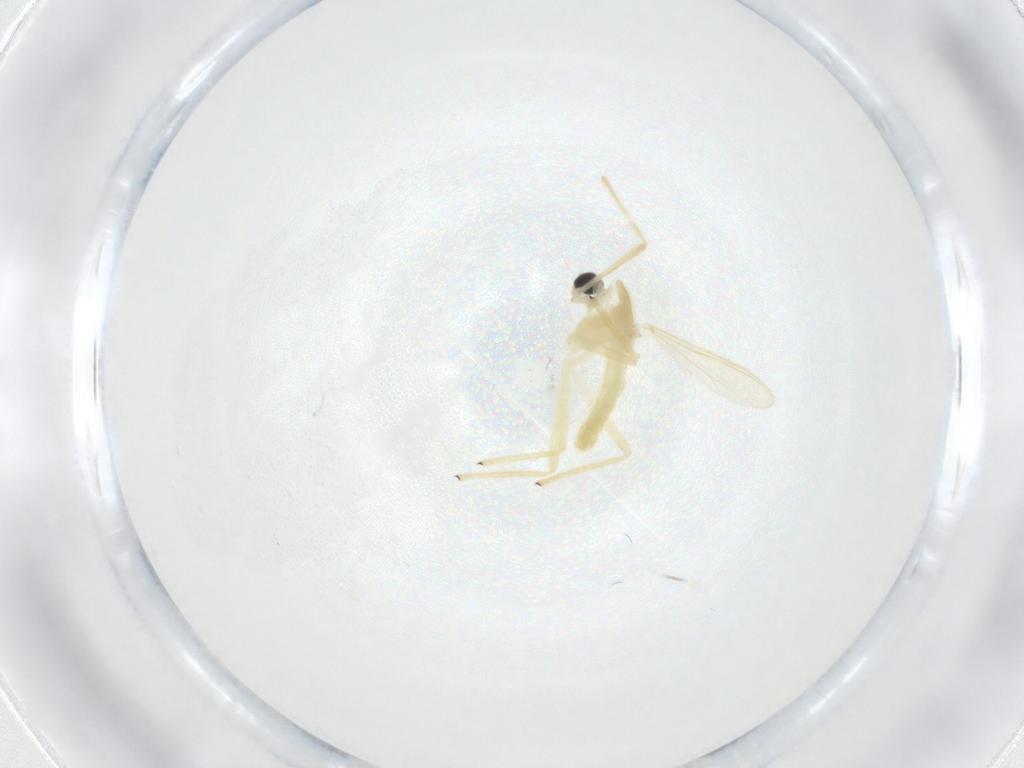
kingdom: Animalia
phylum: Arthropoda
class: Insecta
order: Diptera
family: Chironomidae
